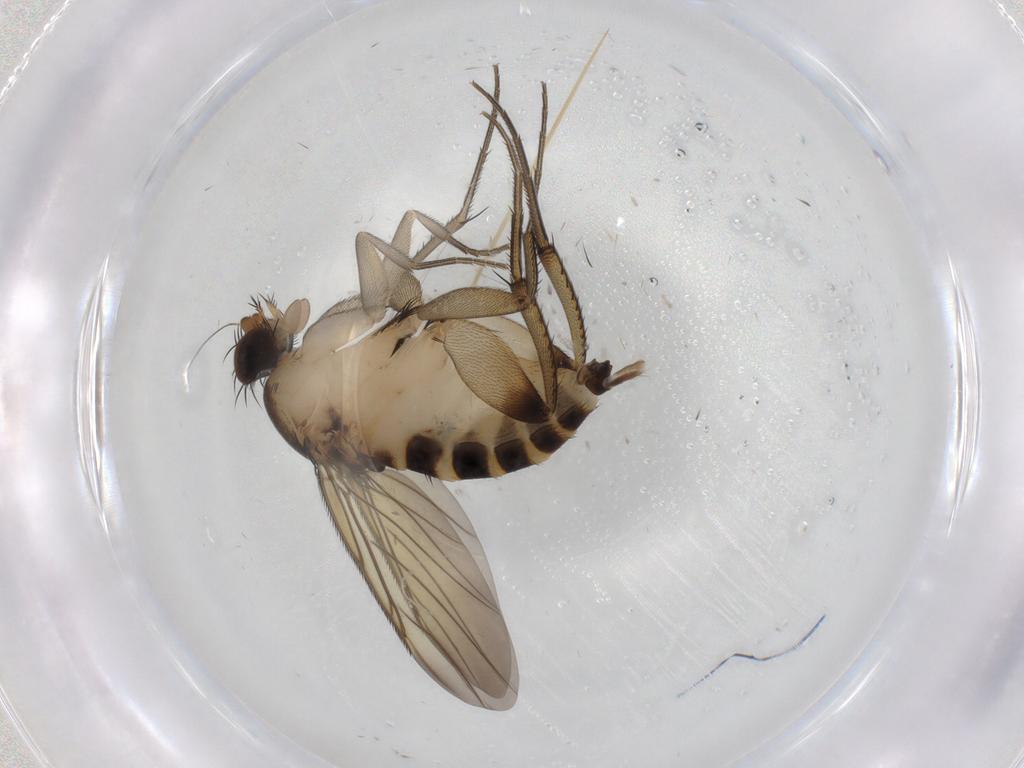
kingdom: Animalia
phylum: Arthropoda
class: Insecta
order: Diptera
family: Phoridae
